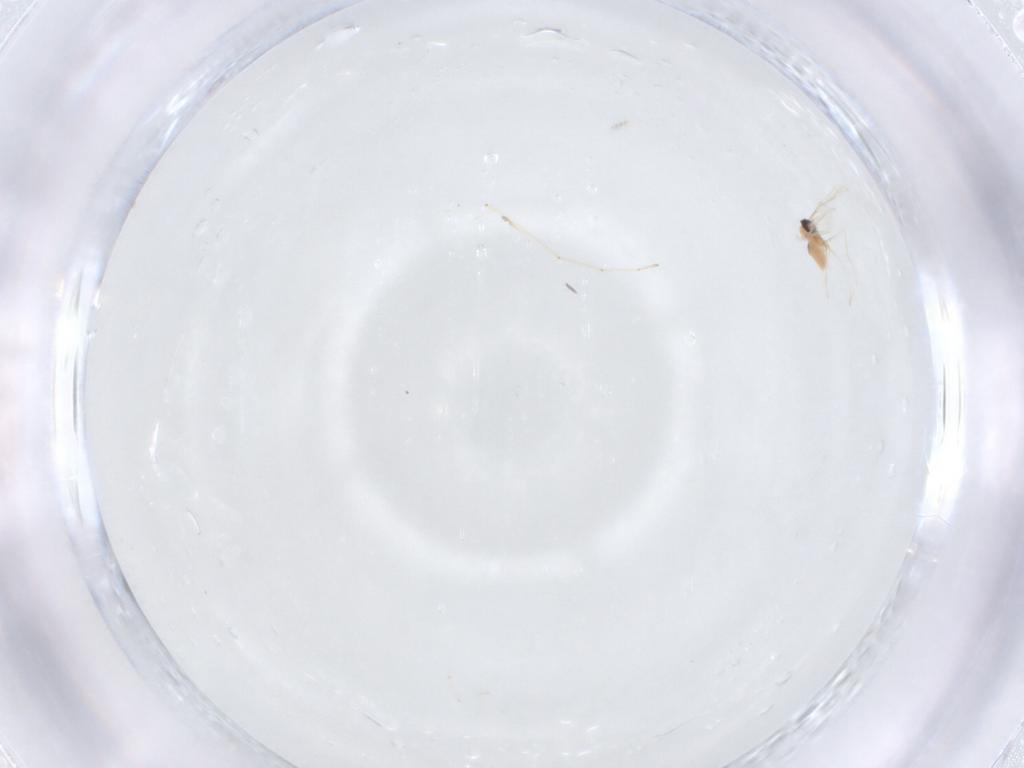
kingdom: Animalia
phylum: Arthropoda
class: Insecta
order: Diptera
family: Cecidomyiidae
